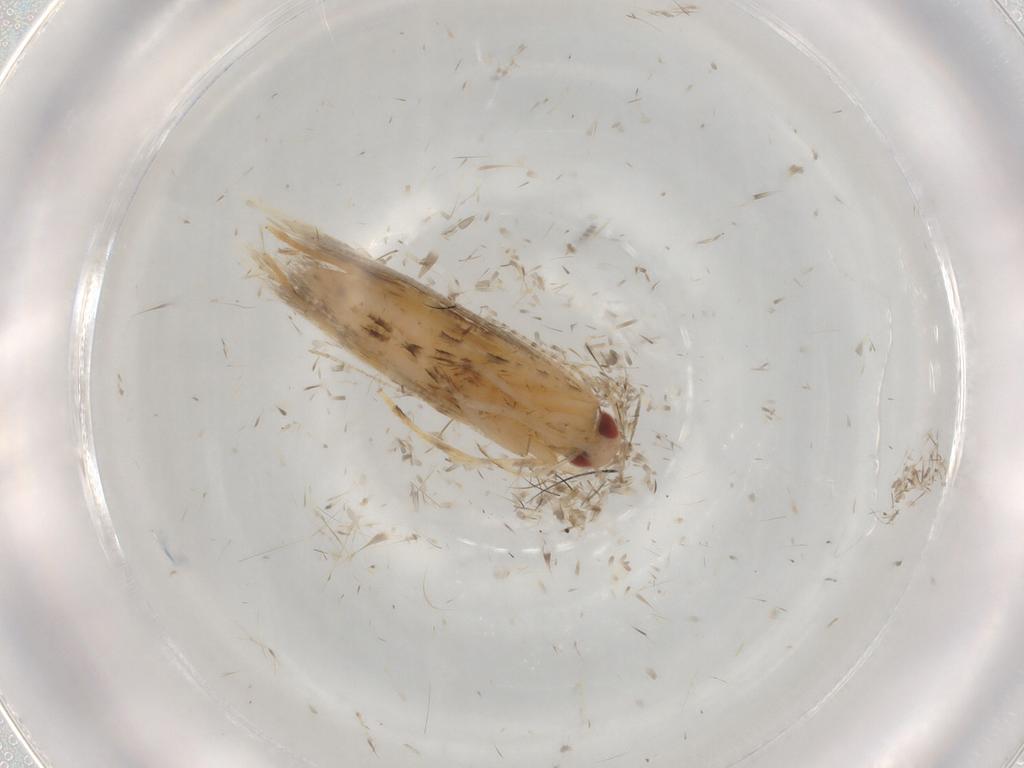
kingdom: Animalia
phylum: Arthropoda
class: Insecta
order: Lepidoptera
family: Cosmopterigidae
